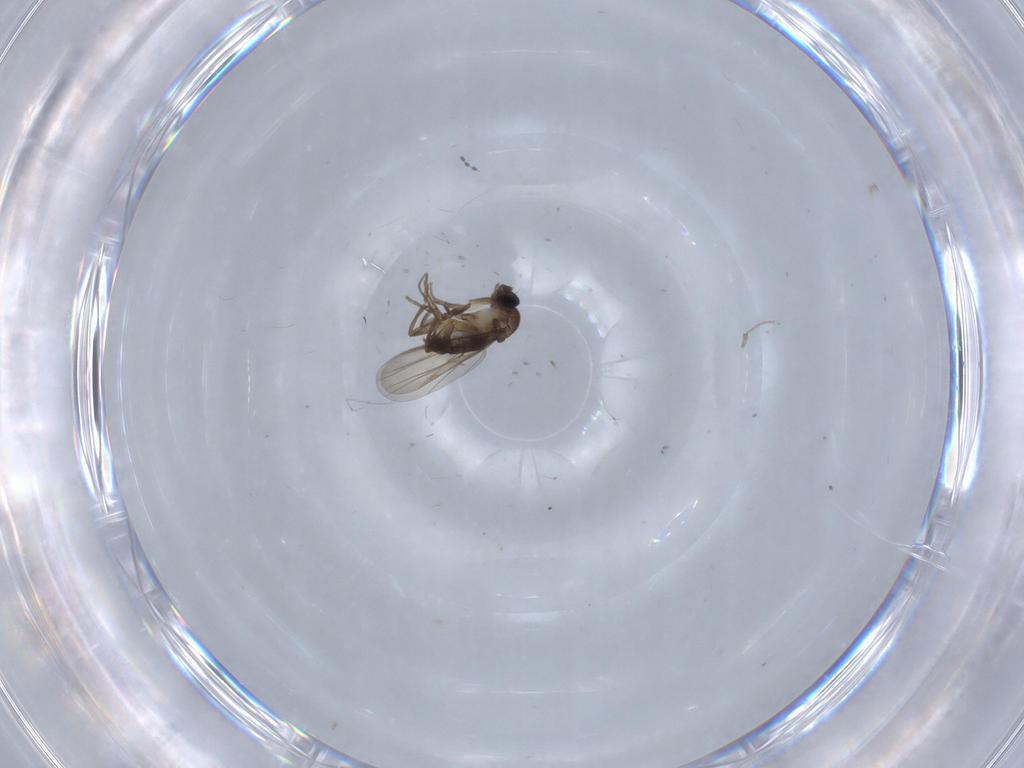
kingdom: Animalia
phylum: Arthropoda
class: Insecta
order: Diptera
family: Phoridae
